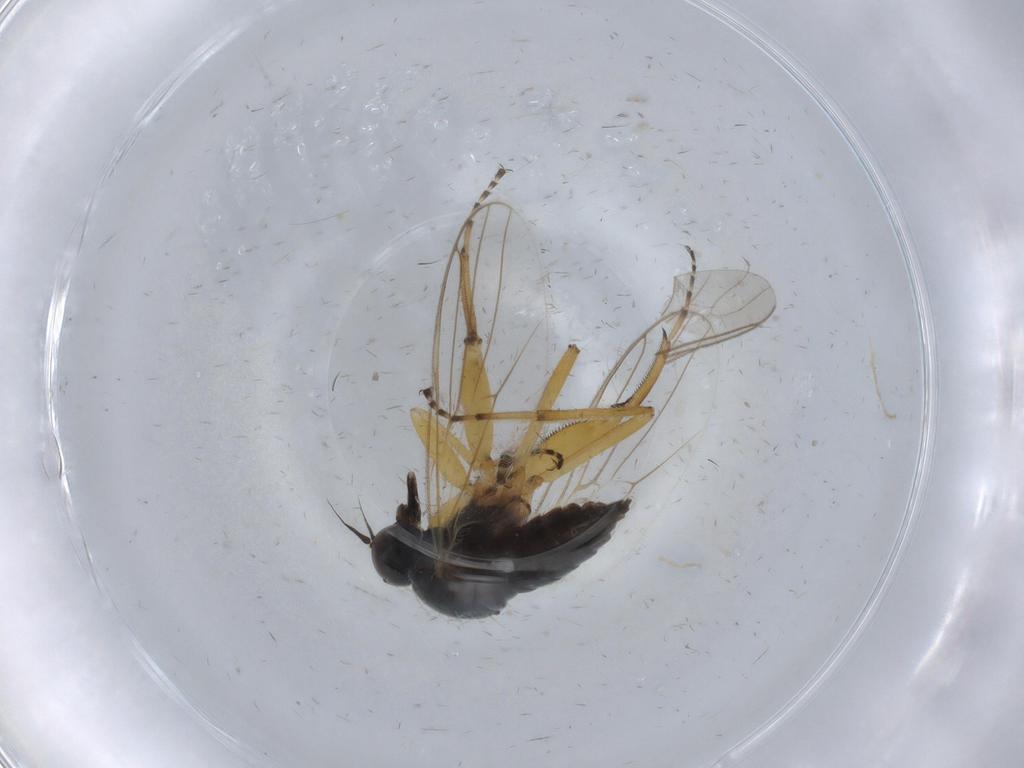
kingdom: Animalia
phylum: Arthropoda
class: Insecta
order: Diptera
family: Hybotidae
